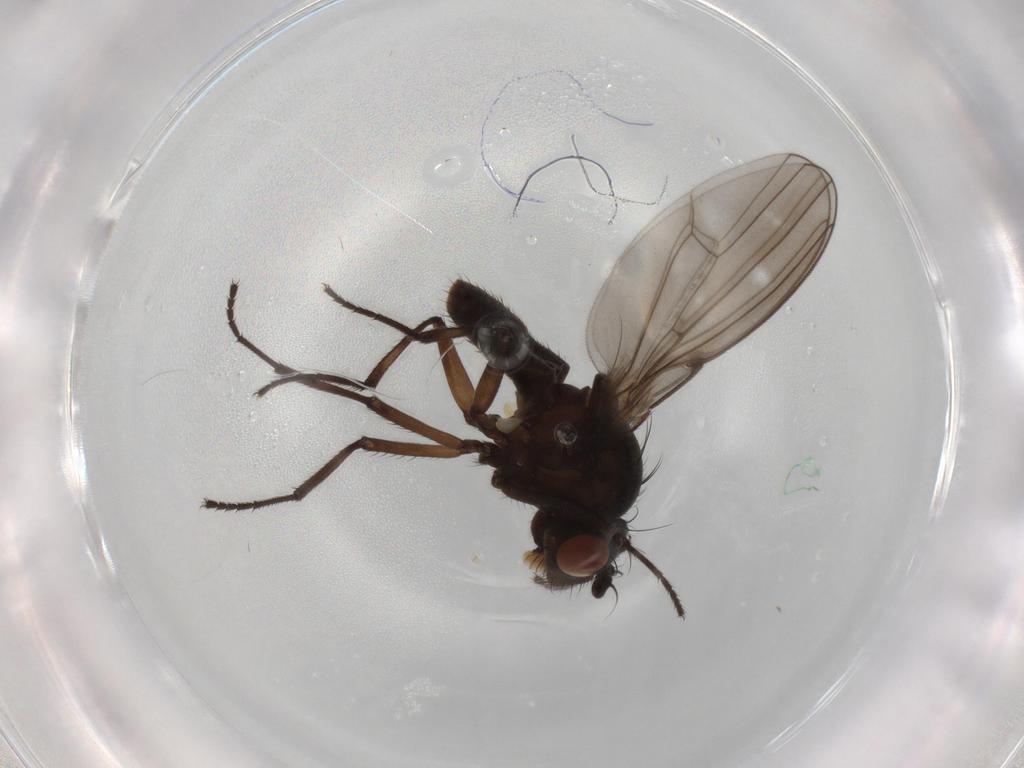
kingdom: Animalia
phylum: Arthropoda
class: Insecta
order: Diptera
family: Ephydridae
